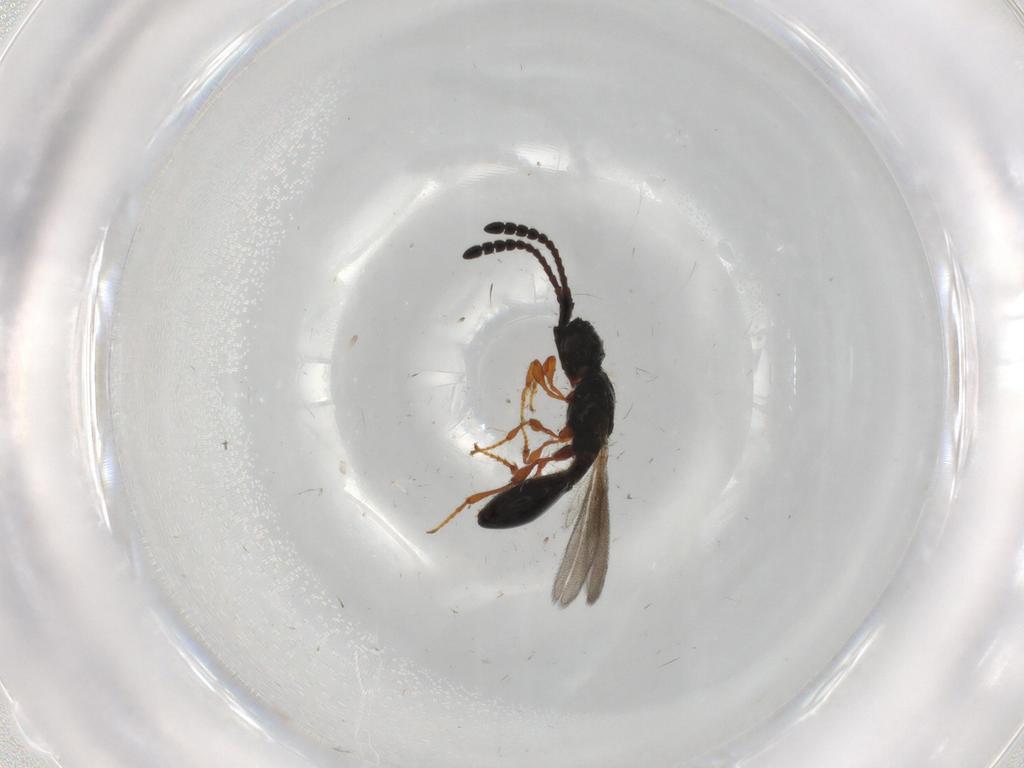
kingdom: Animalia
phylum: Arthropoda
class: Insecta
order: Hymenoptera
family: Diapriidae
